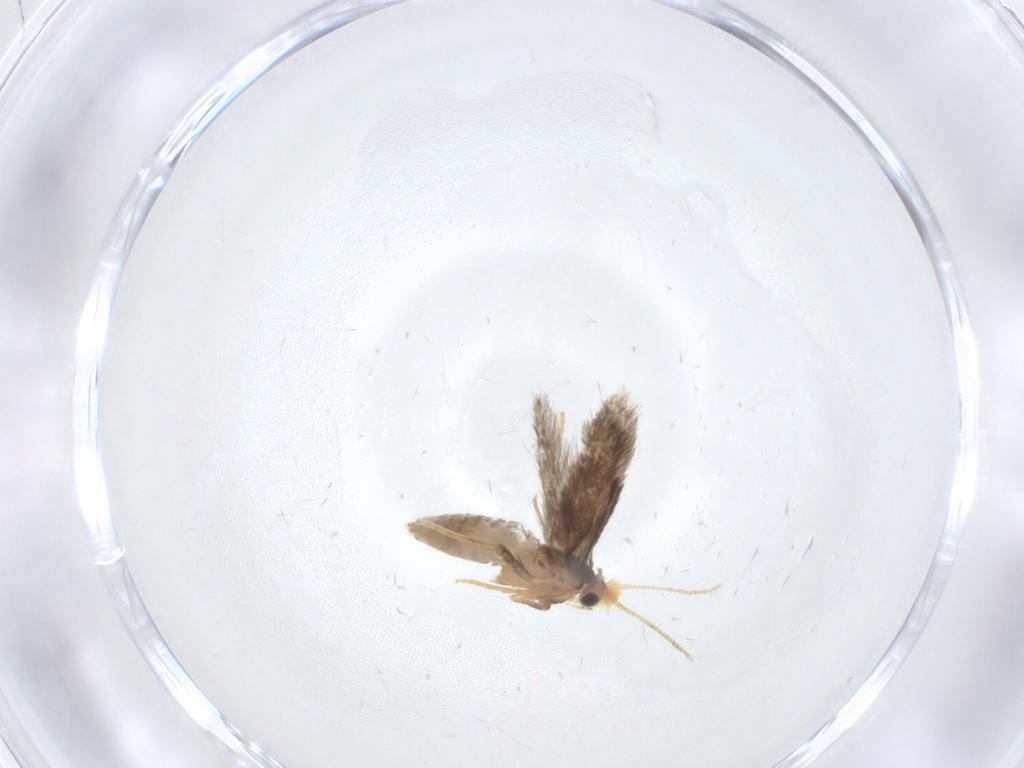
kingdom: Animalia
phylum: Arthropoda
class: Insecta
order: Lepidoptera
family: Nepticulidae
